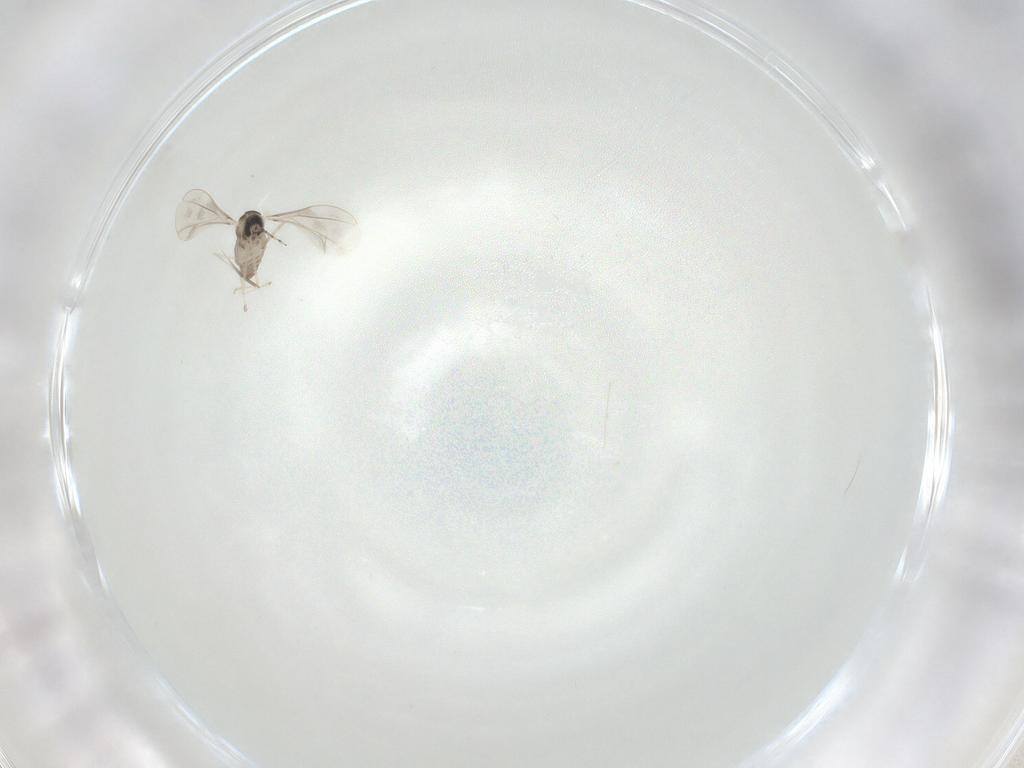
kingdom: Animalia
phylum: Arthropoda
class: Insecta
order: Diptera
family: Cecidomyiidae
